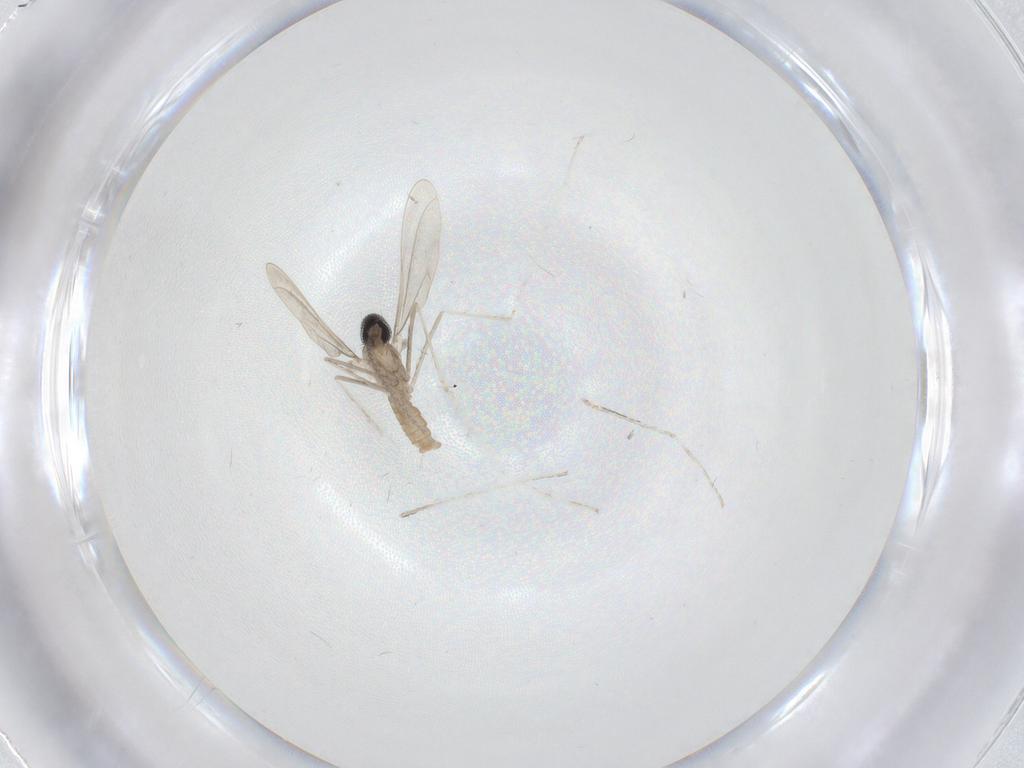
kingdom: Animalia
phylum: Arthropoda
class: Insecta
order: Diptera
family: Cecidomyiidae
